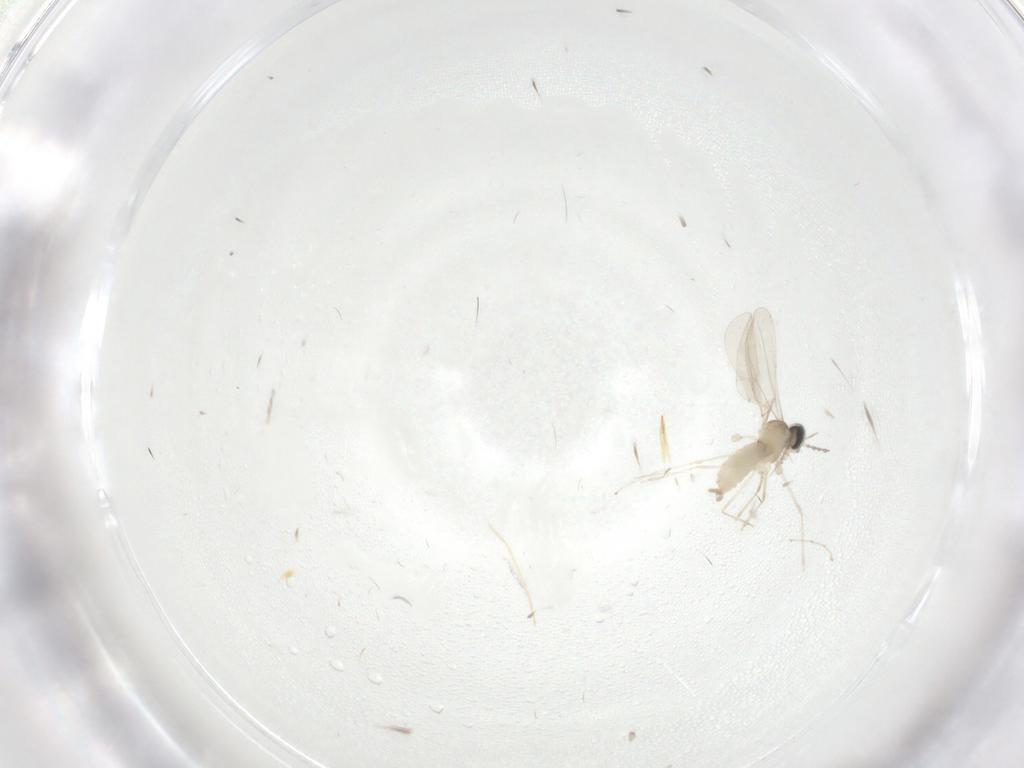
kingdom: Animalia
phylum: Arthropoda
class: Insecta
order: Diptera
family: Cecidomyiidae
